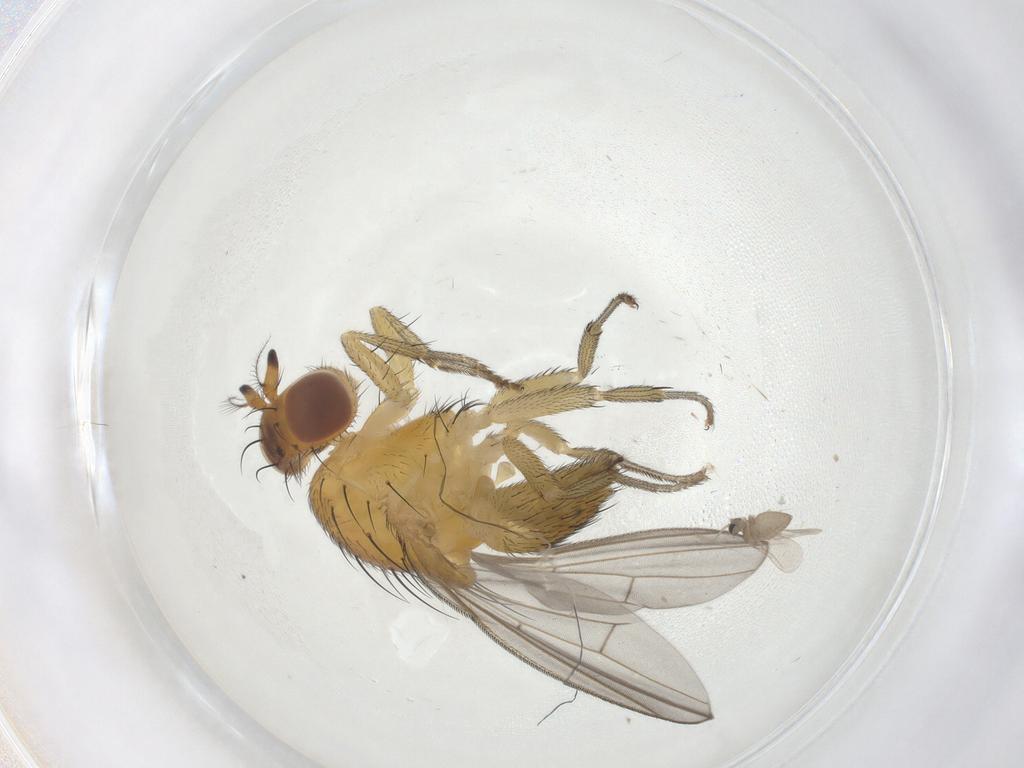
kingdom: Animalia
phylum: Arthropoda
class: Insecta
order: Diptera
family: Lauxaniidae
